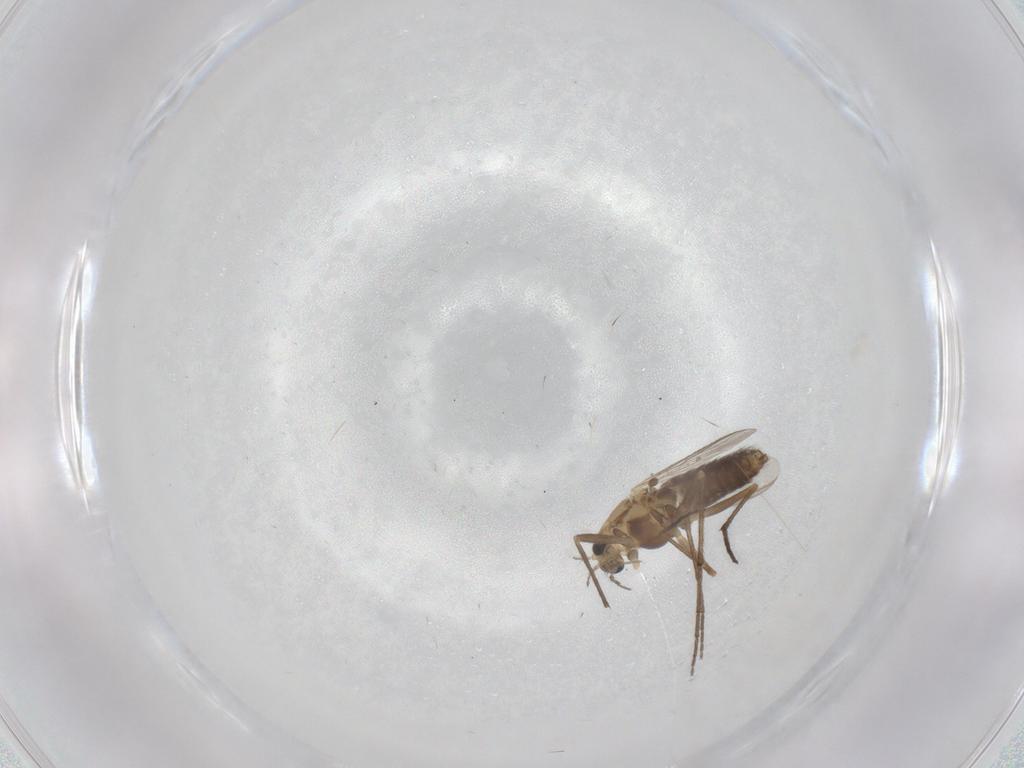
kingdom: Animalia
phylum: Arthropoda
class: Insecta
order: Diptera
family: Chironomidae
